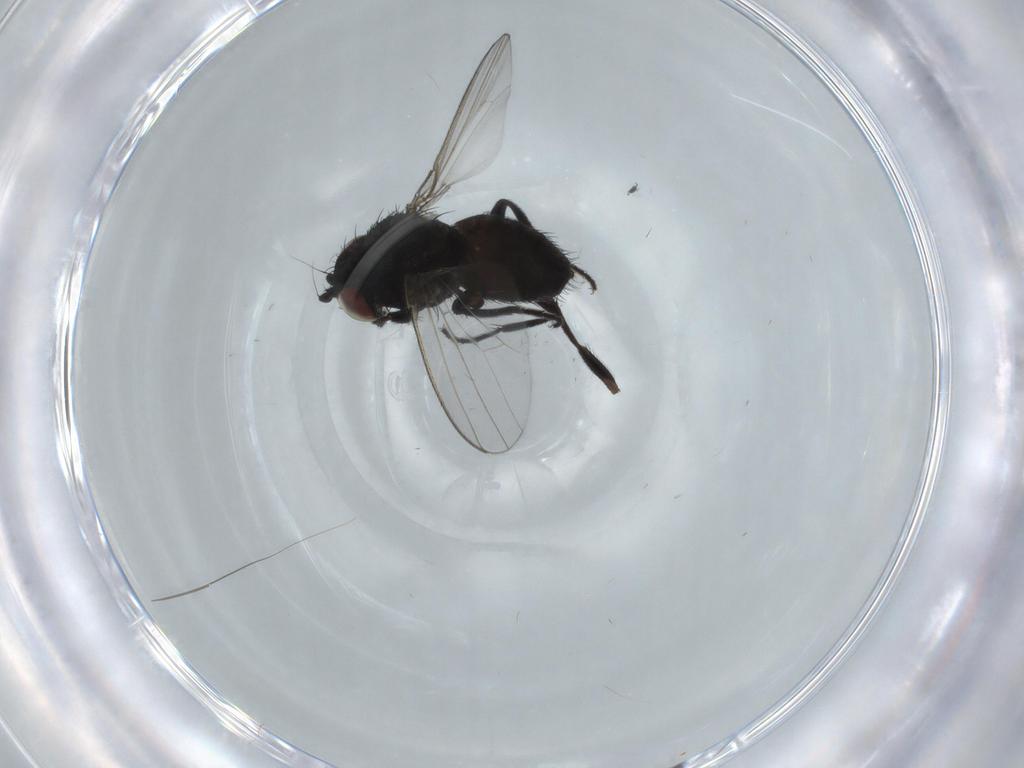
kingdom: Animalia
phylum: Arthropoda
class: Insecta
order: Diptera
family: Milichiidae
